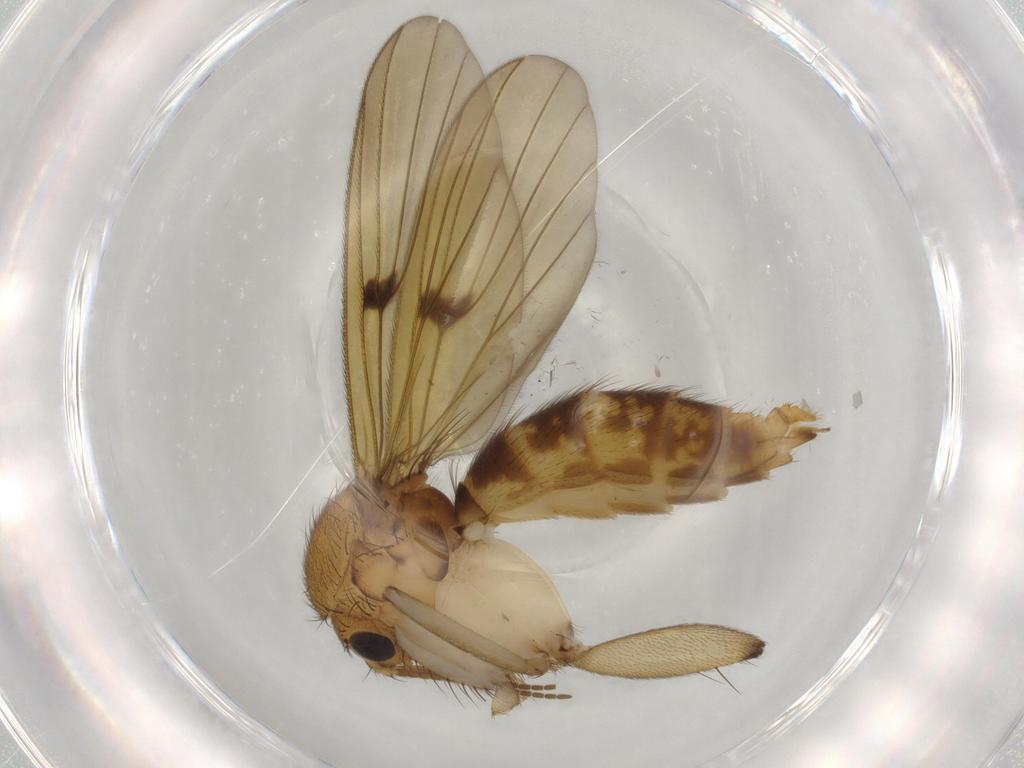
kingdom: Animalia
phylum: Arthropoda
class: Insecta
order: Diptera
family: Mycetophilidae
